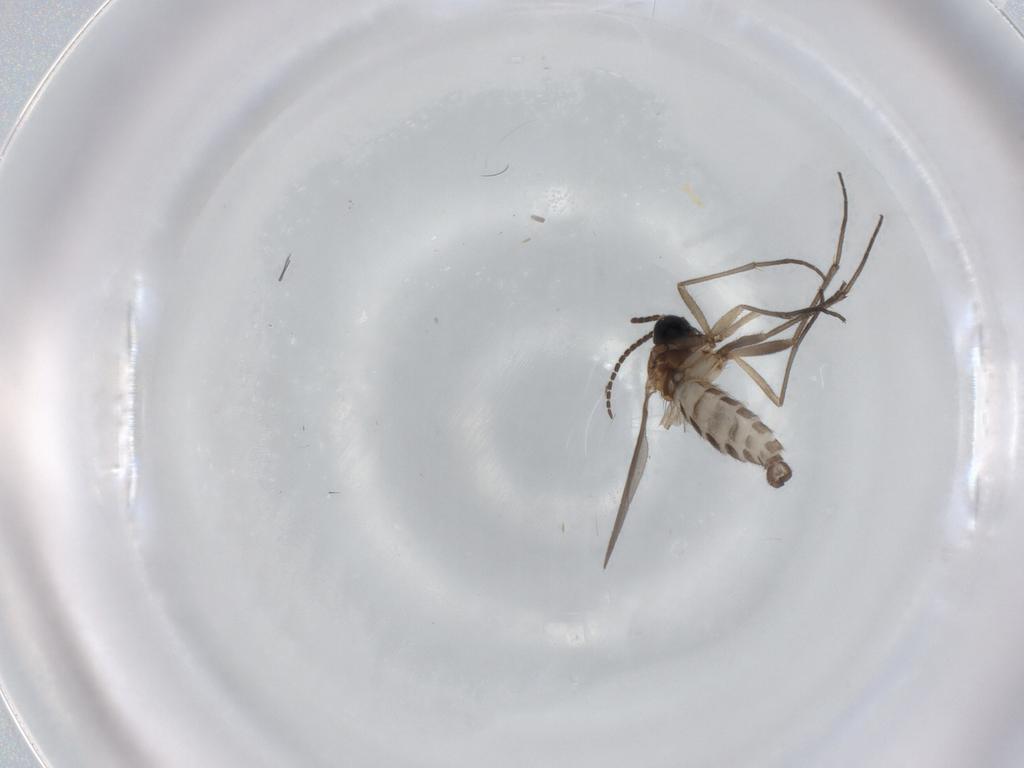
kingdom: Animalia
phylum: Arthropoda
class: Insecta
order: Diptera
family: Sciaridae
